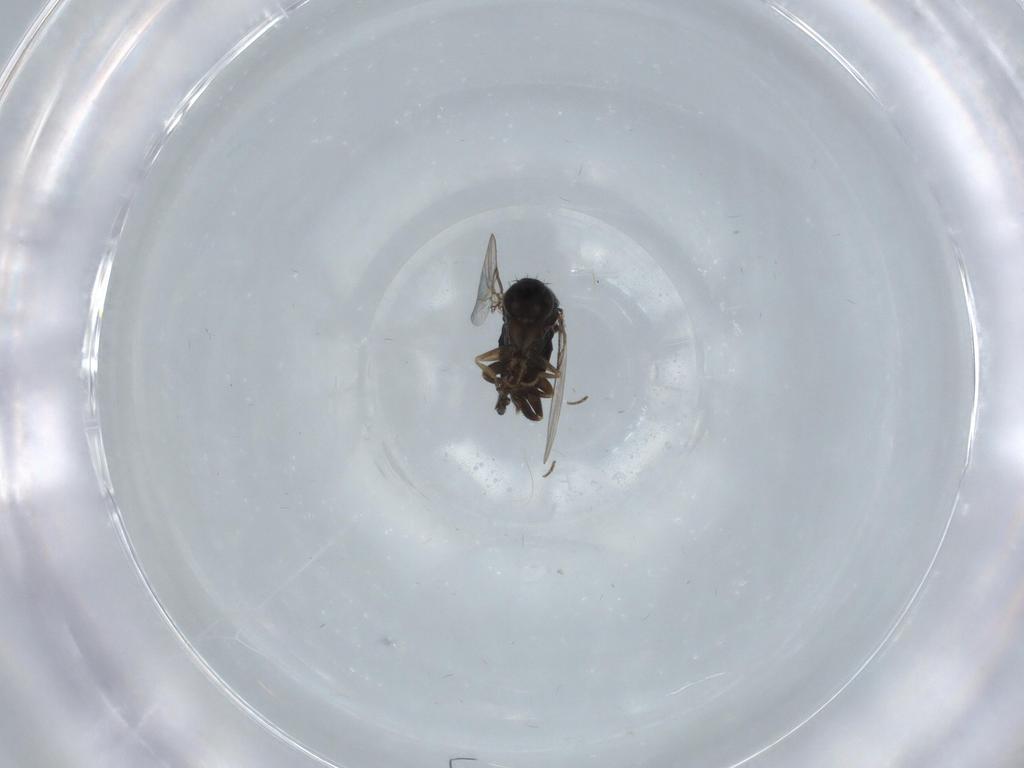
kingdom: Animalia
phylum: Arthropoda
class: Insecta
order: Diptera
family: Phoridae
